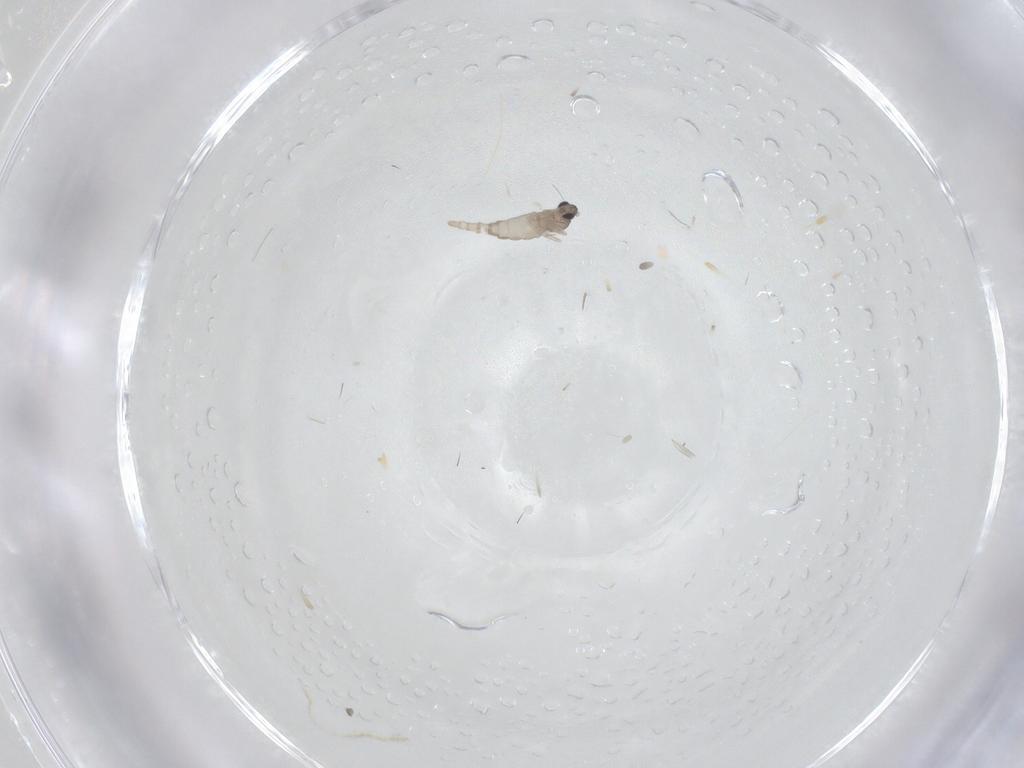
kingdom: Animalia
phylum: Arthropoda
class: Insecta
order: Diptera
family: Cecidomyiidae
